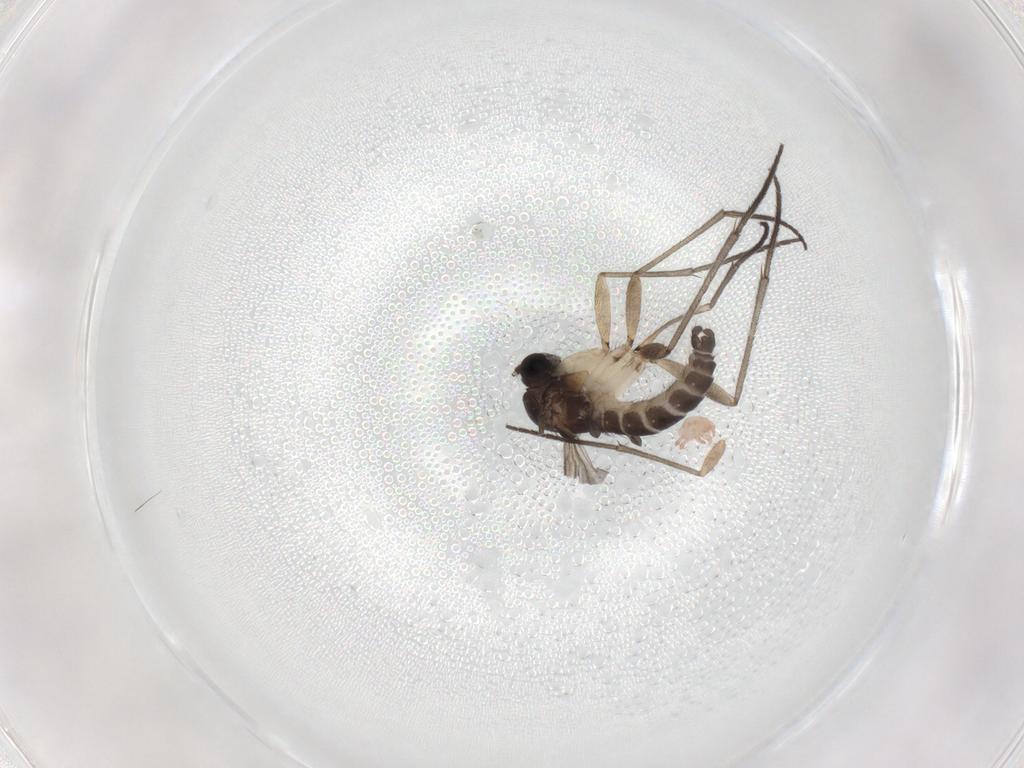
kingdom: Animalia
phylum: Arthropoda
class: Insecta
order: Diptera
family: Sciaridae
